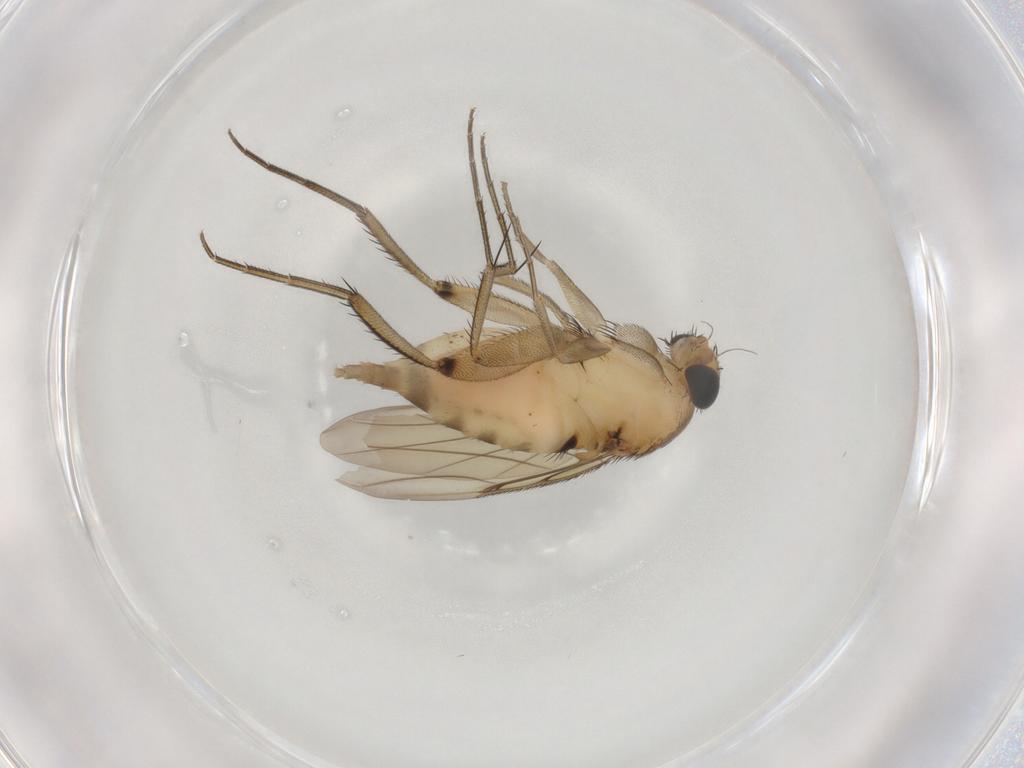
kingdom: Animalia
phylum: Arthropoda
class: Insecta
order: Diptera
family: Phoridae
